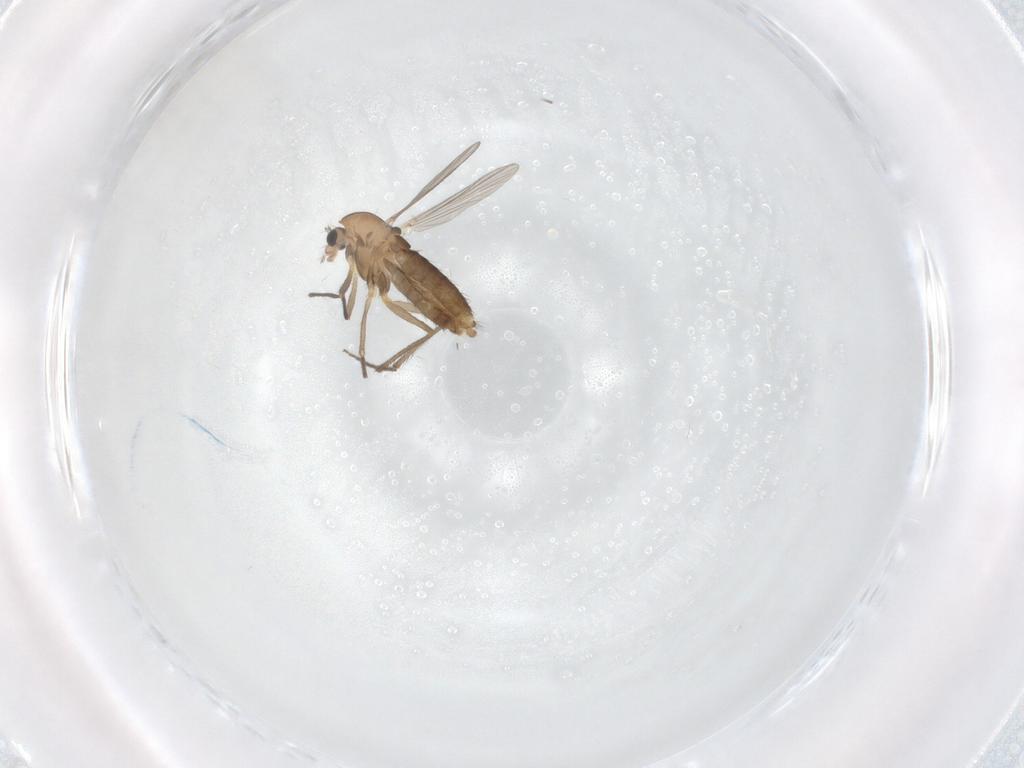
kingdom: Animalia
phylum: Arthropoda
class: Insecta
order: Diptera
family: Chironomidae
